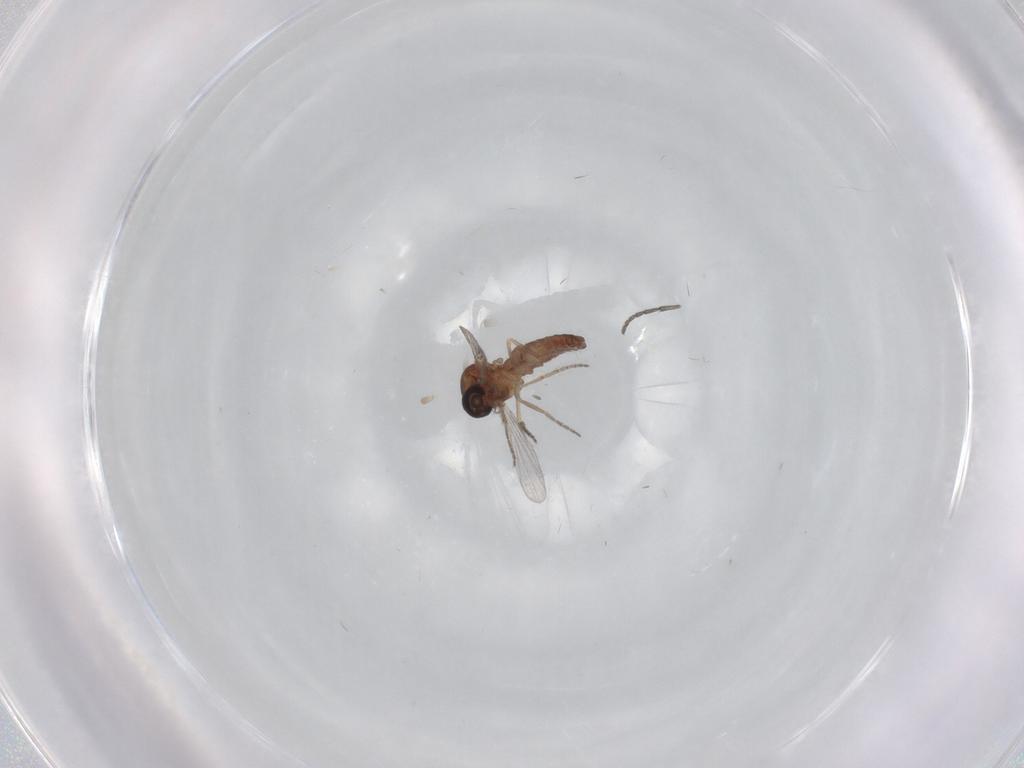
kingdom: Animalia
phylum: Arthropoda
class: Insecta
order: Diptera
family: Ceratopogonidae
